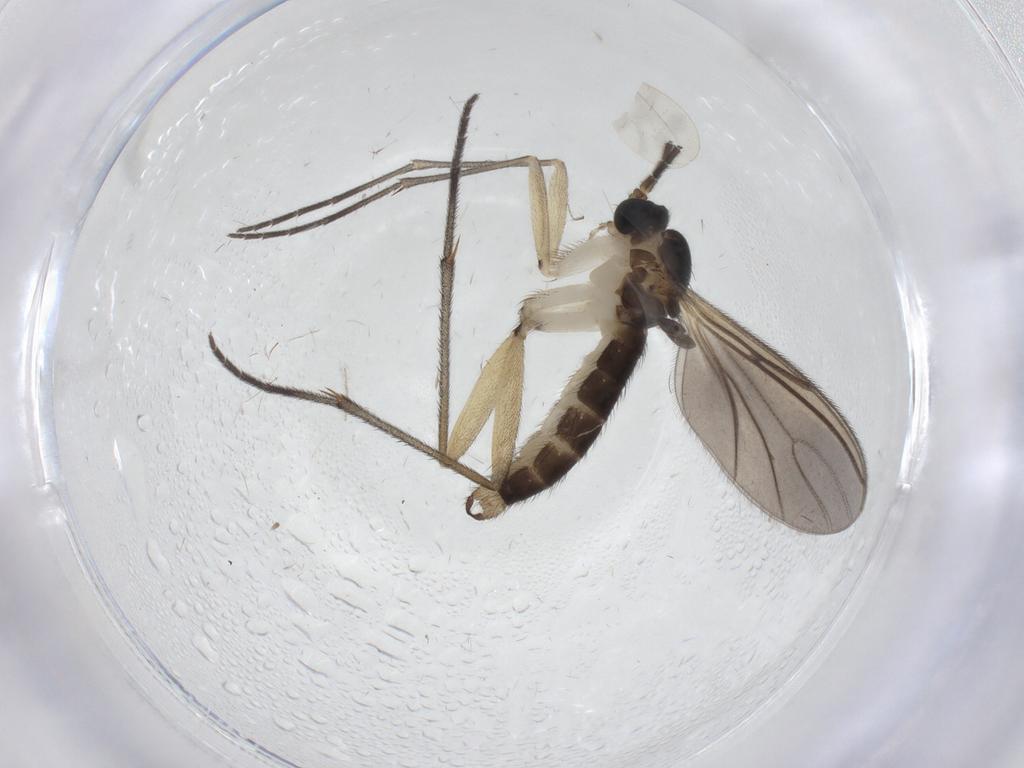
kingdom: Animalia
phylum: Arthropoda
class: Insecta
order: Diptera
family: Sciaridae
